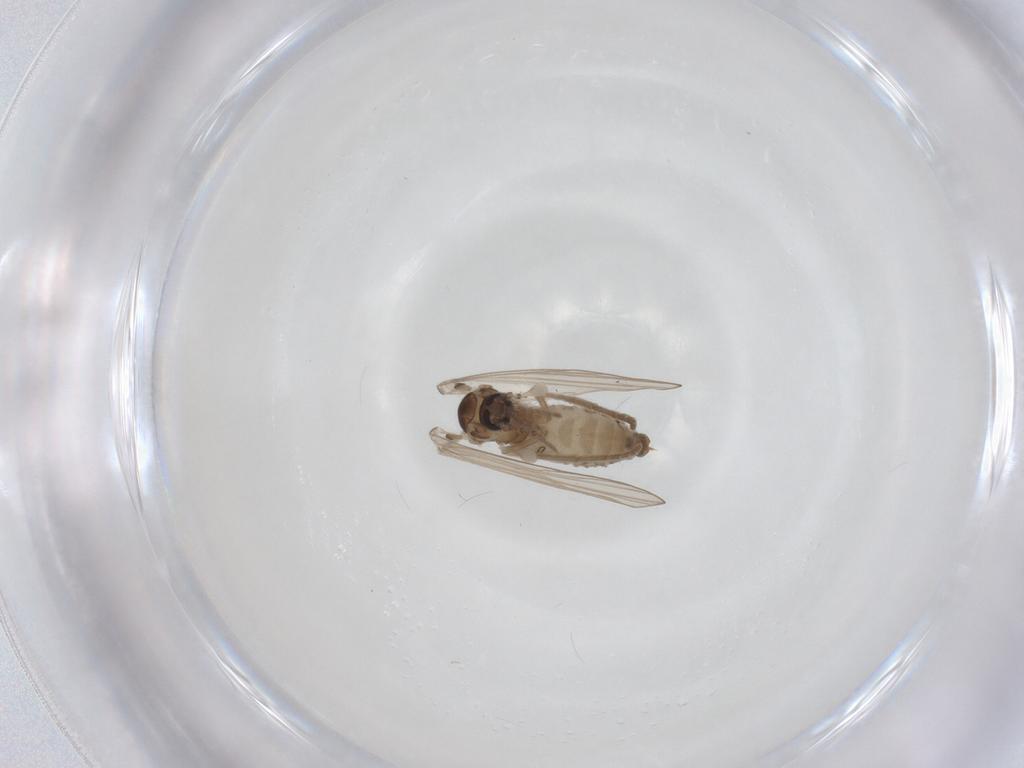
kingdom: Animalia
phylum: Arthropoda
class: Insecta
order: Diptera
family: Psychodidae
